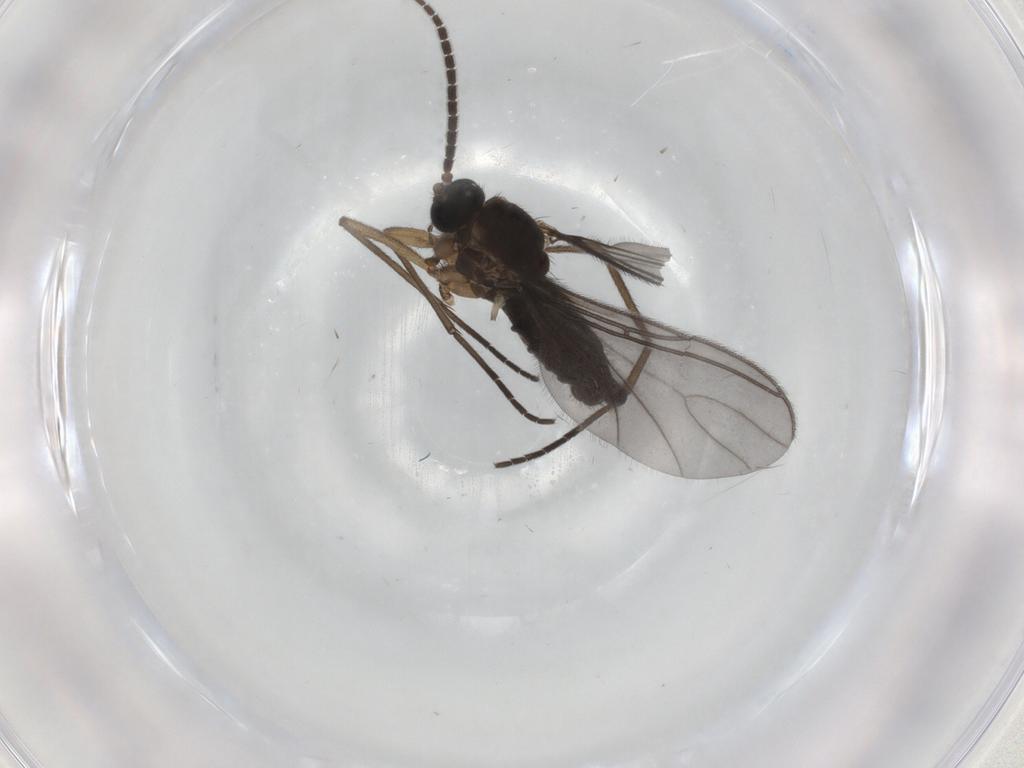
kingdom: Animalia
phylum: Arthropoda
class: Insecta
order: Diptera
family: Sciaridae
